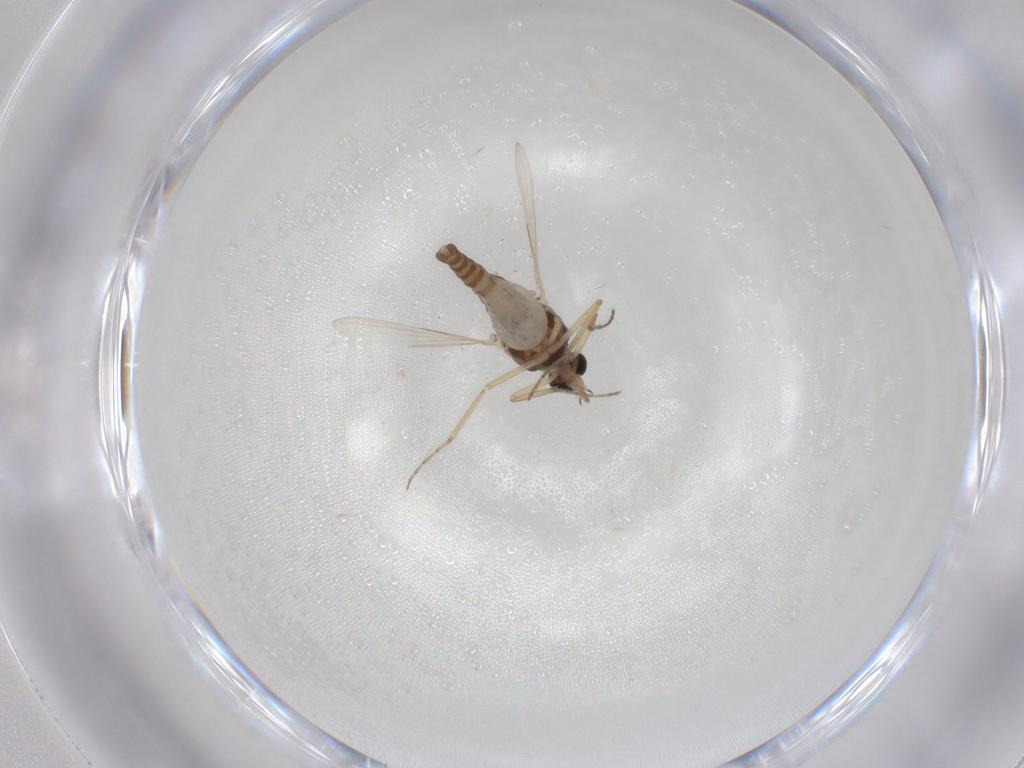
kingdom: Animalia
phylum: Arthropoda
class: Insecta
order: Diptera
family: Ceratopogonidae
